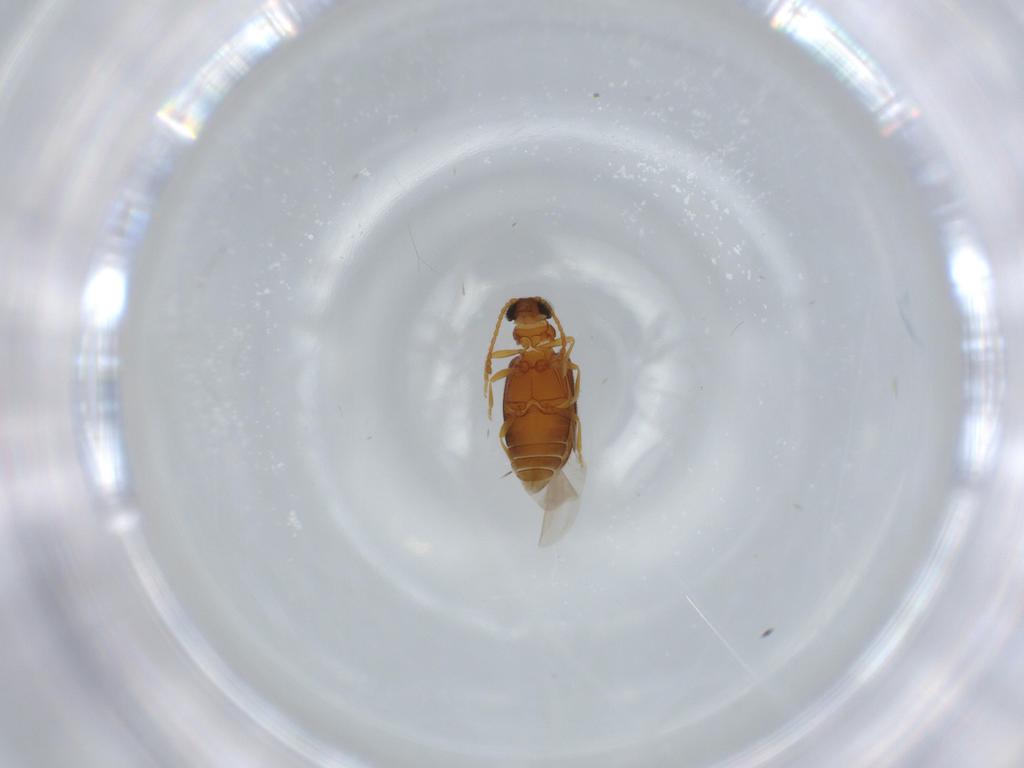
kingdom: Animalia
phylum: Arthropoda
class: Insecta
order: Coleoptera
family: Aderidae
